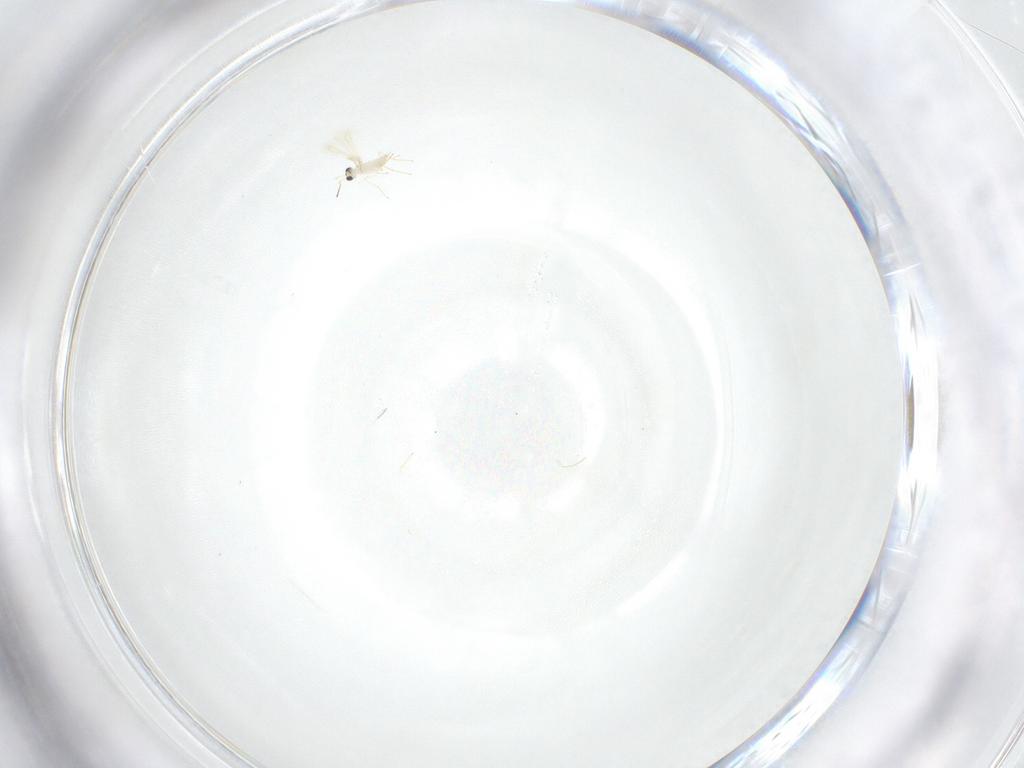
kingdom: Animalia
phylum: Arthropoda
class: Insecta
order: Hymenoptera
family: Mymaridae
